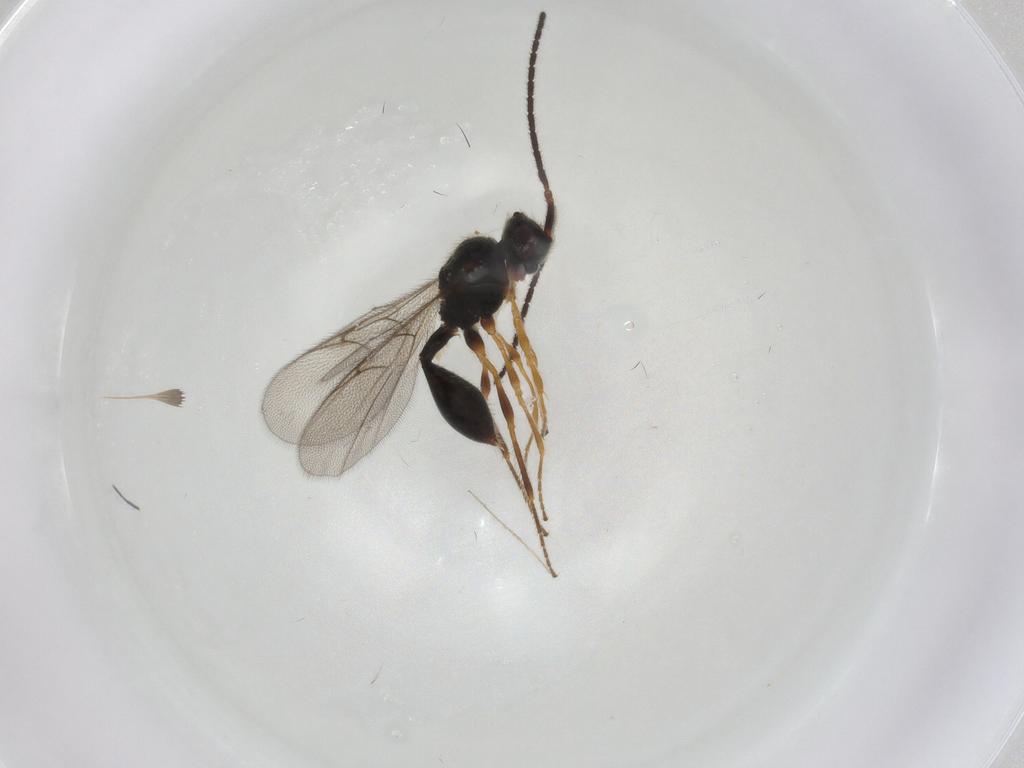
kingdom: Animalia
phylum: Arthropoda
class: Insecta
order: Hymenoptera
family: Diapriidae
